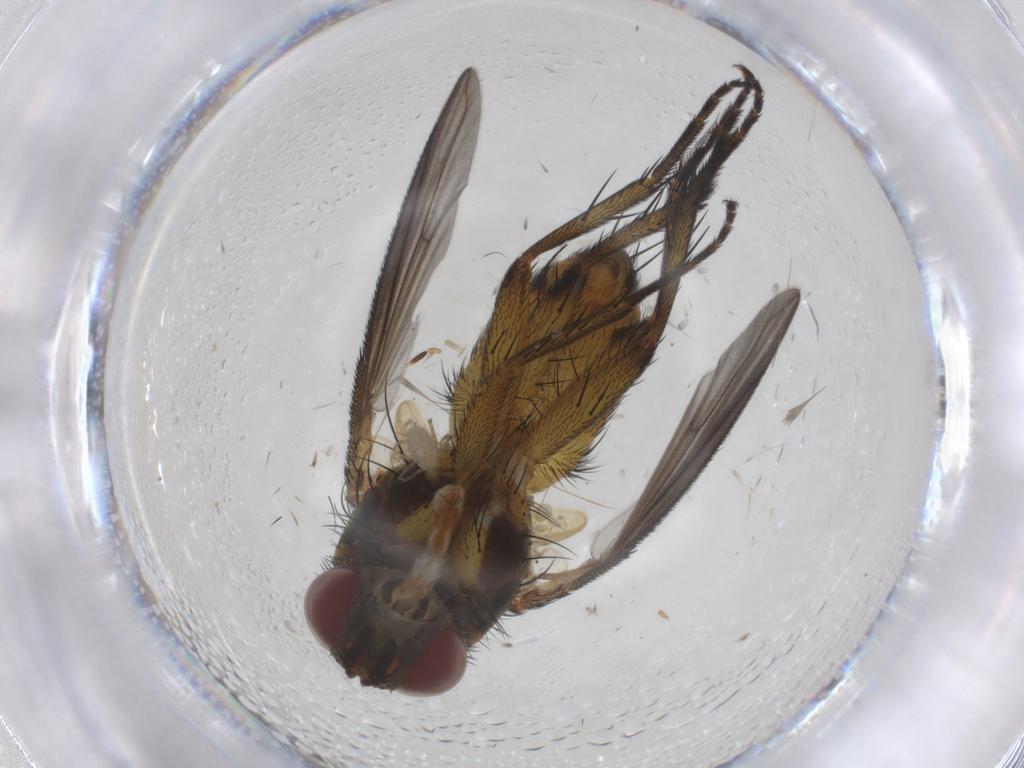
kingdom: Animalia
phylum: Arthropoda
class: Insecta
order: Diptera
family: Tachinidae
